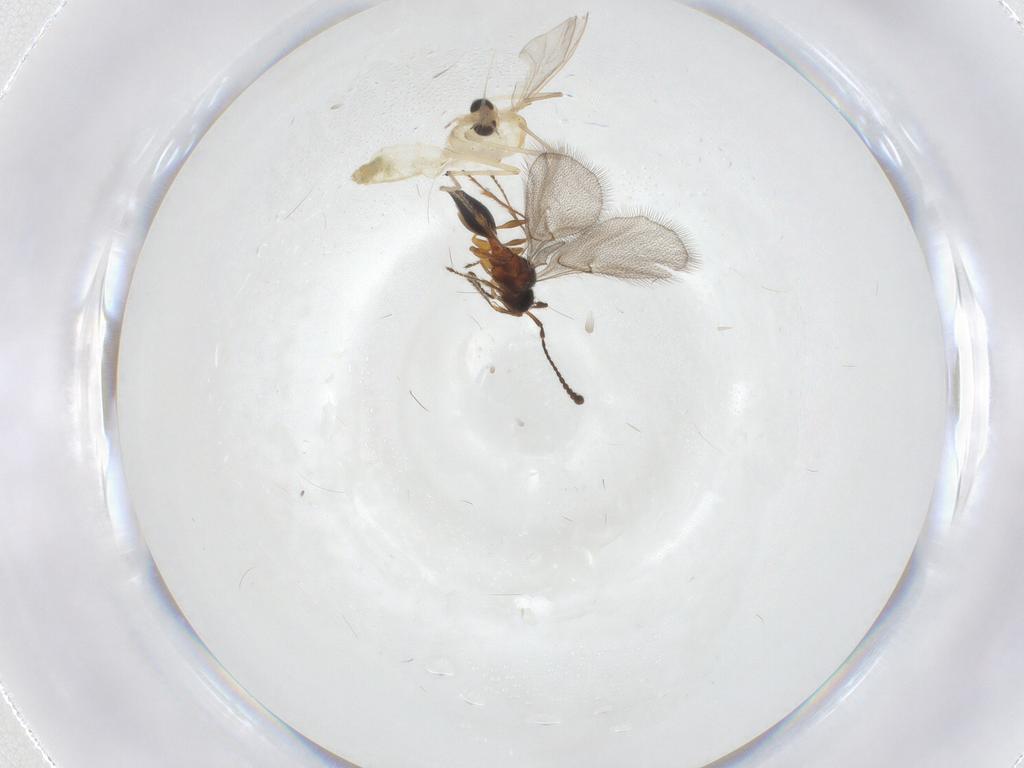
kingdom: Animalia
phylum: Arthropoda
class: Insecta
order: Diptera
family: Chironomidae
